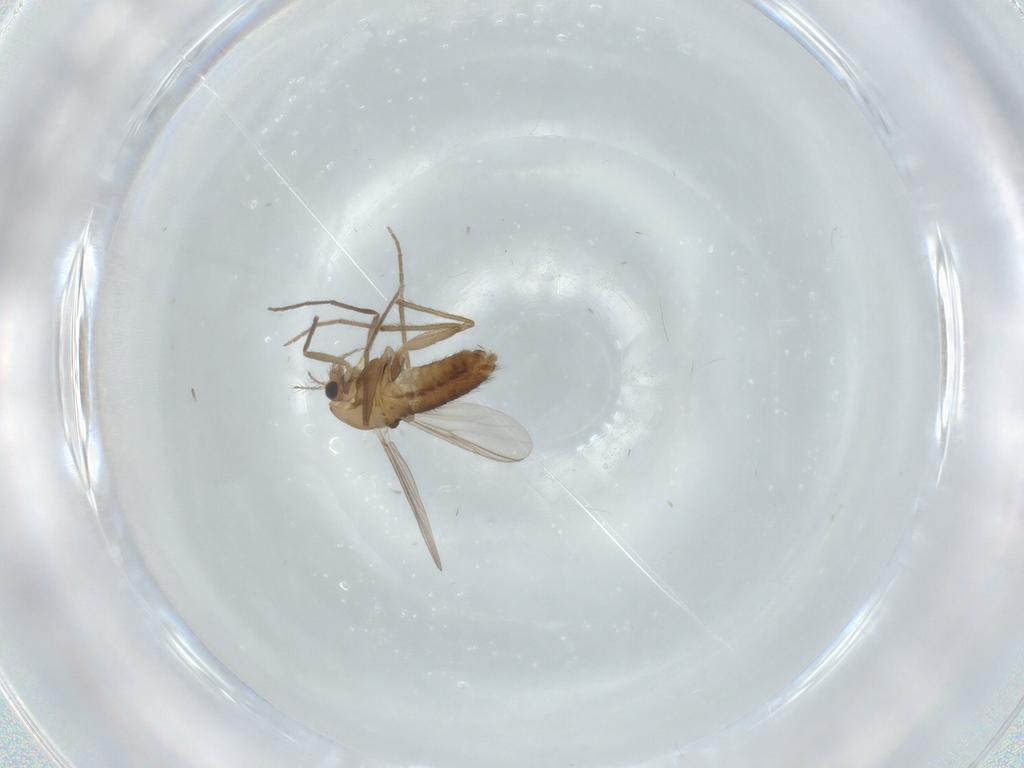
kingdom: Animalia
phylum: Arthropoda
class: Insecta
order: Diptera
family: Chironomidae
